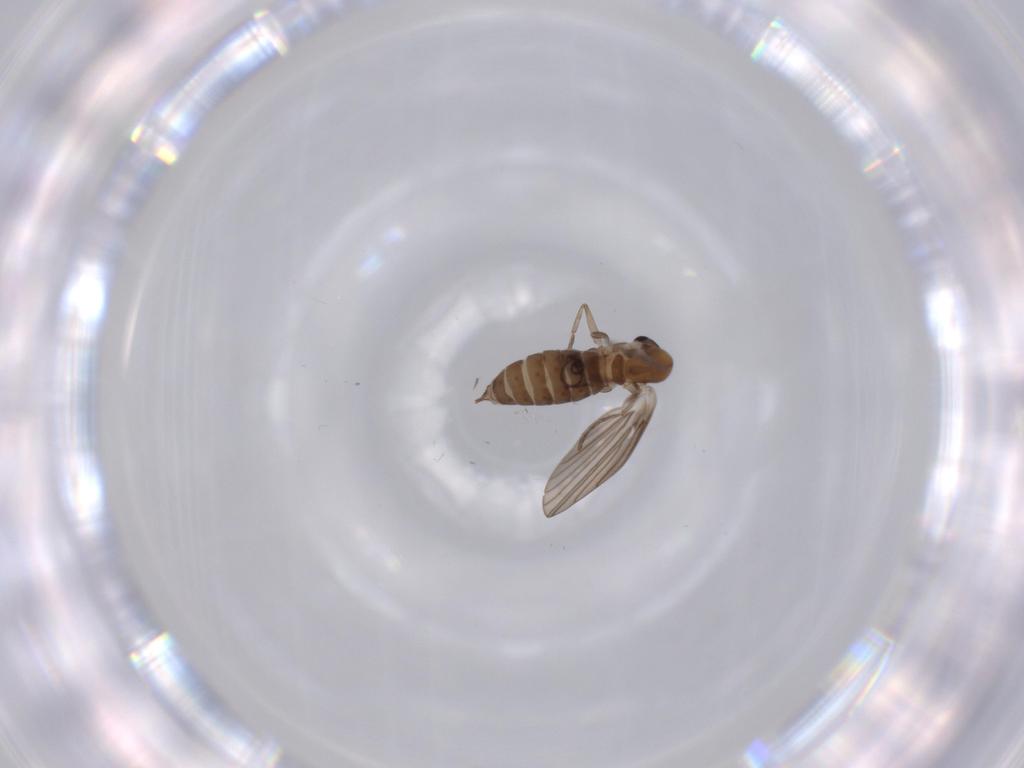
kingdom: Animalia
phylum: Arthropoda
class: Insecta
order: Diptera
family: Psychodidae
